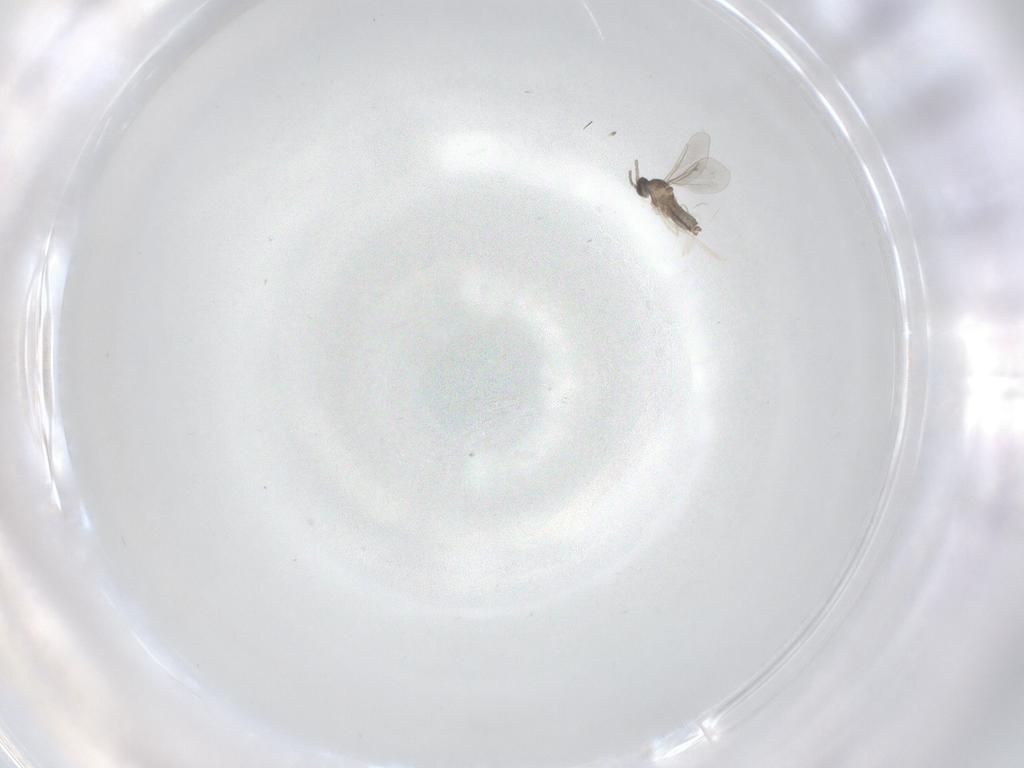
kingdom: Animalia
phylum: Arthropoda
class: Insecta
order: Diptera
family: Cecidomyiidae
